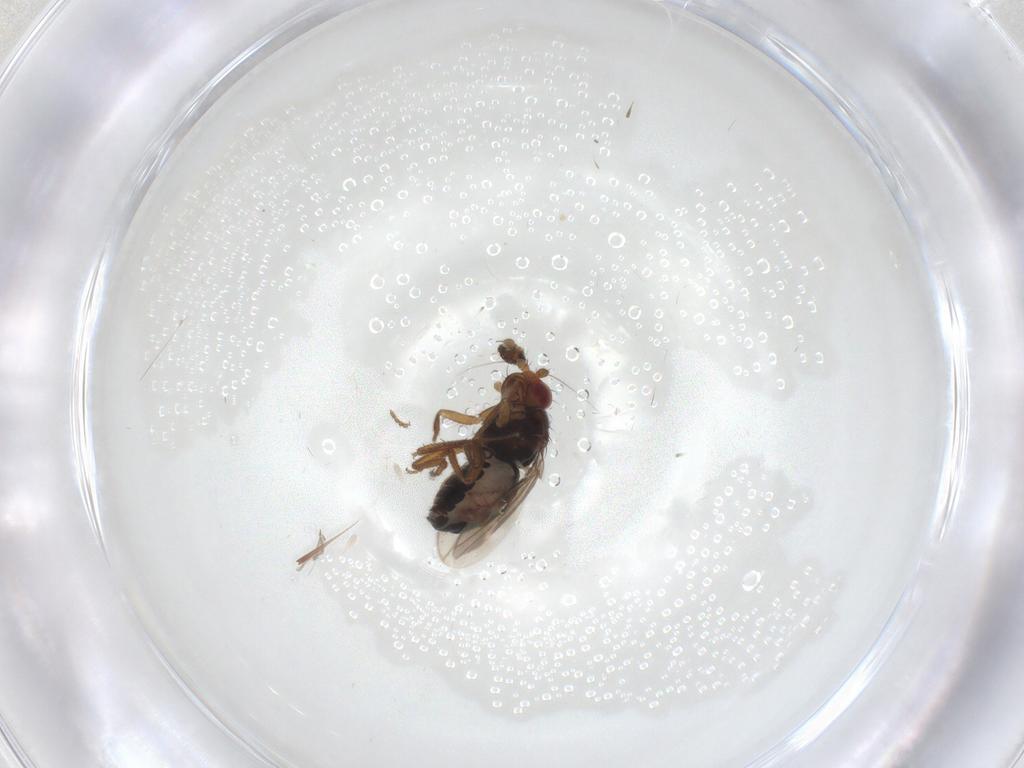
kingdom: Animalia
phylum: Arthropoda
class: Insecta
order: Diptera
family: Sphaeroceridae
